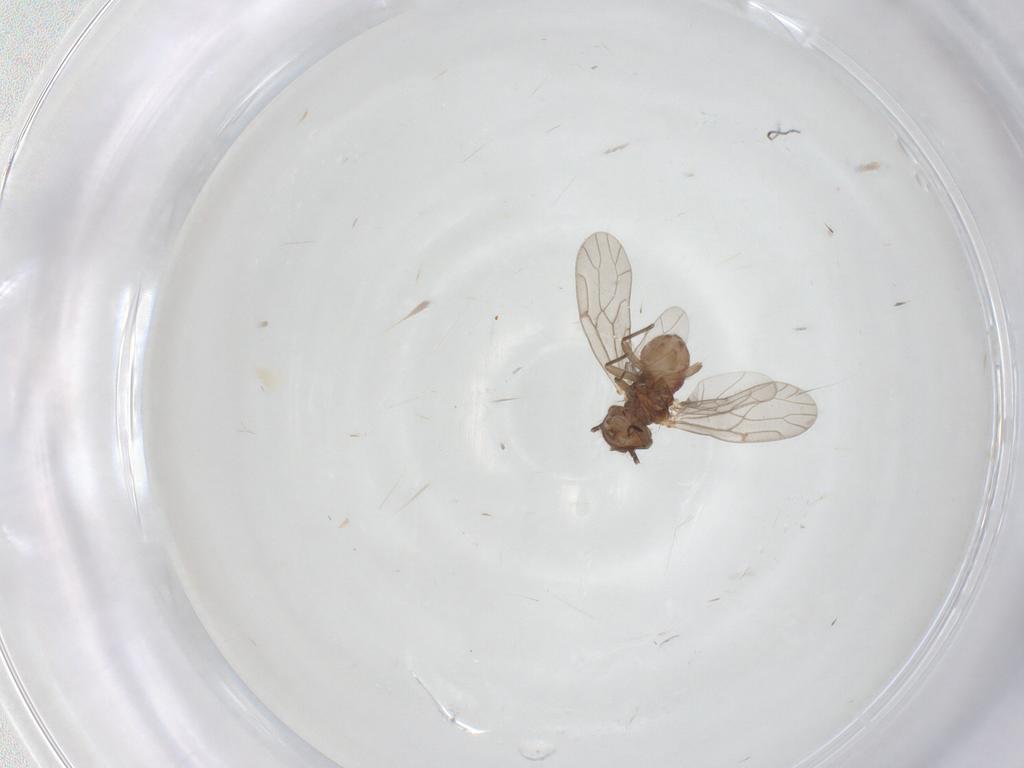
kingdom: Animalia
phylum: Arthropoda
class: Insecta
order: Psocodea
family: Ectopsocidae
